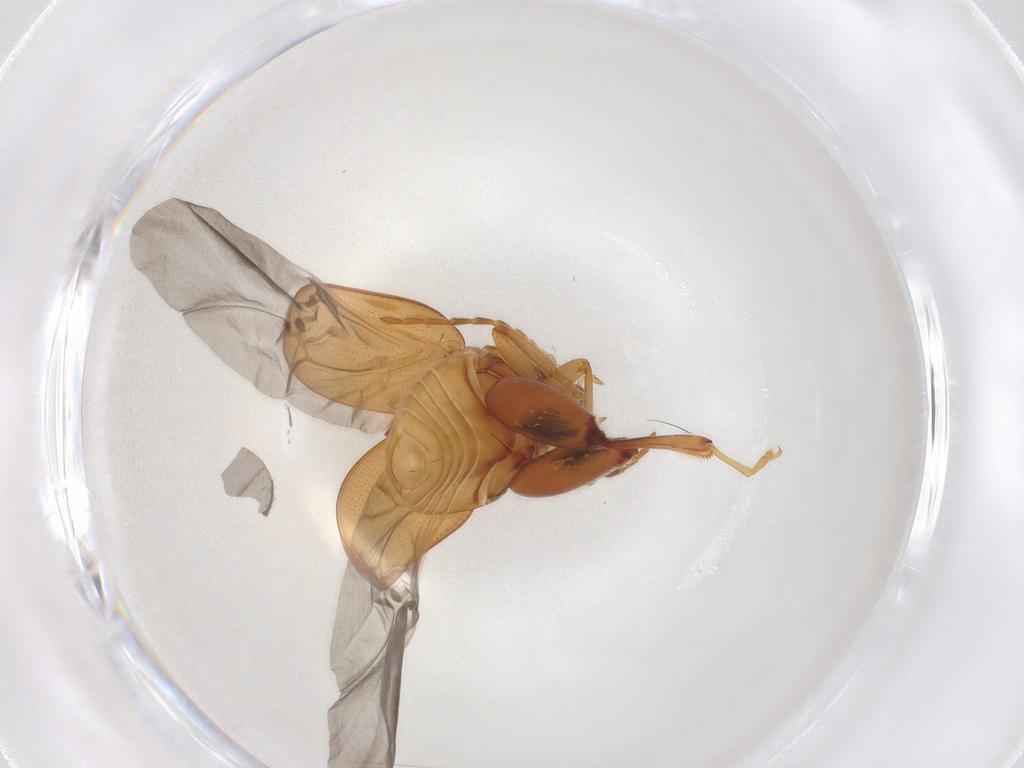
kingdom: Animalia
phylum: Arthropoda
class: Insecta
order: Coleoptera
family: Chrysomelidae
